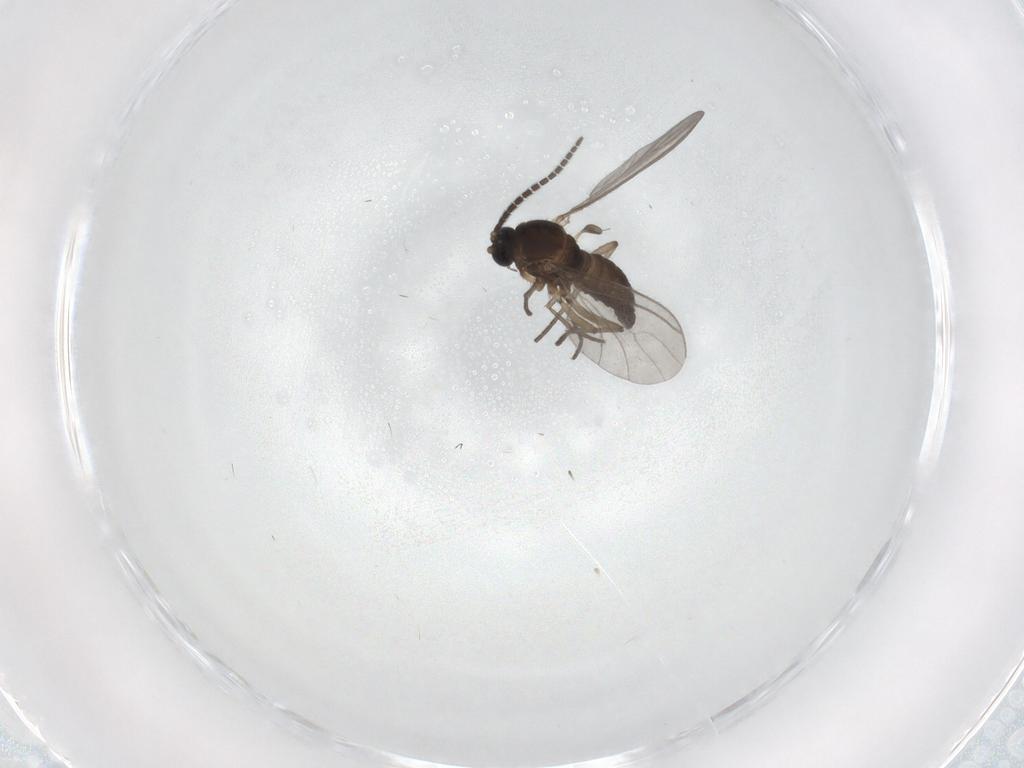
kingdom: Animalia
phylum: Arthropoda
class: Insecta
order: Diptera
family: Sciaridae
